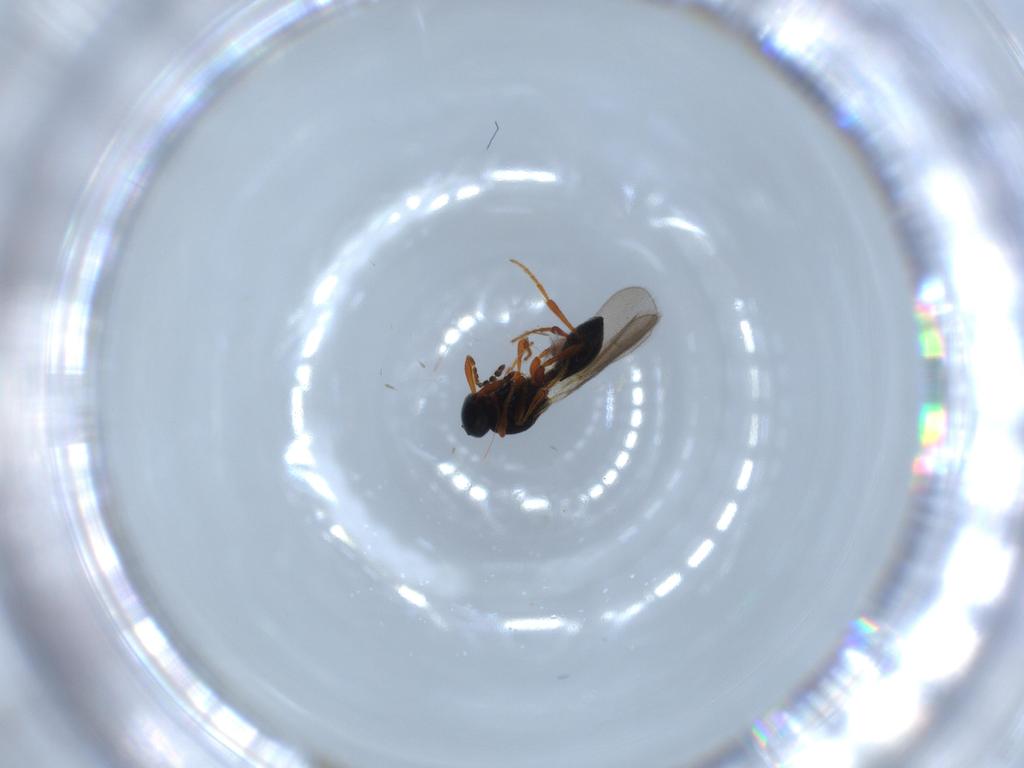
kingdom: Animalia
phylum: Arthropoda
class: Insecta
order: Hymenoptera
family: Platygastridae
